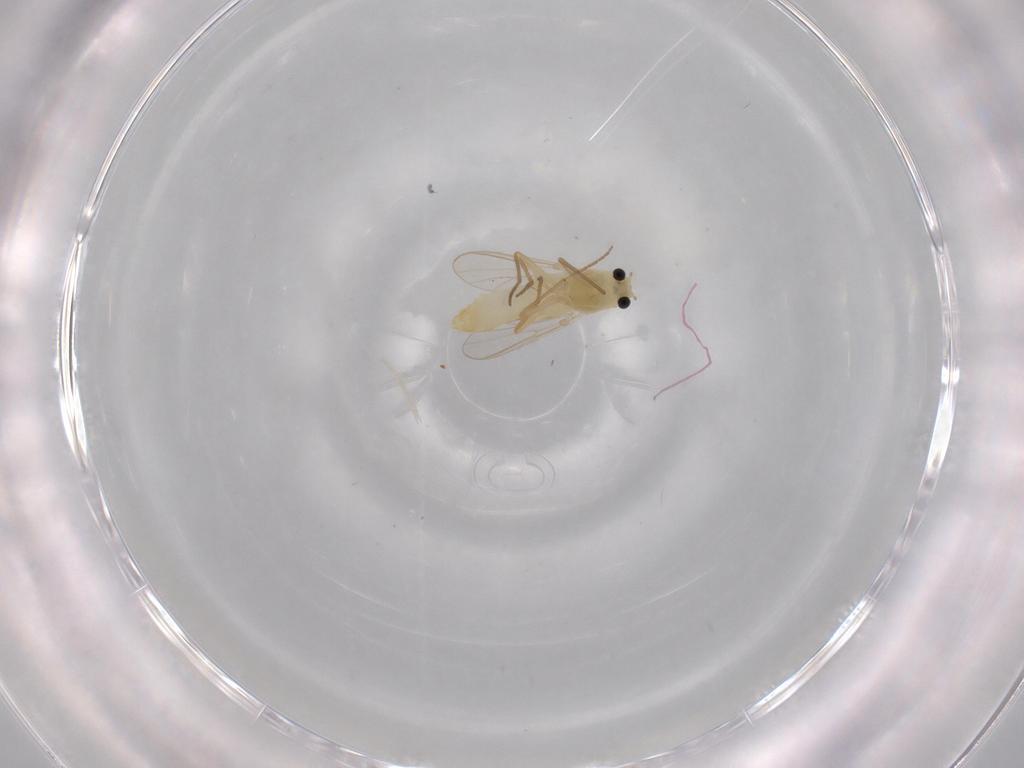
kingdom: Animalia
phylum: Arthropoda
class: Insecta
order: Diptera
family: Chironomidae
